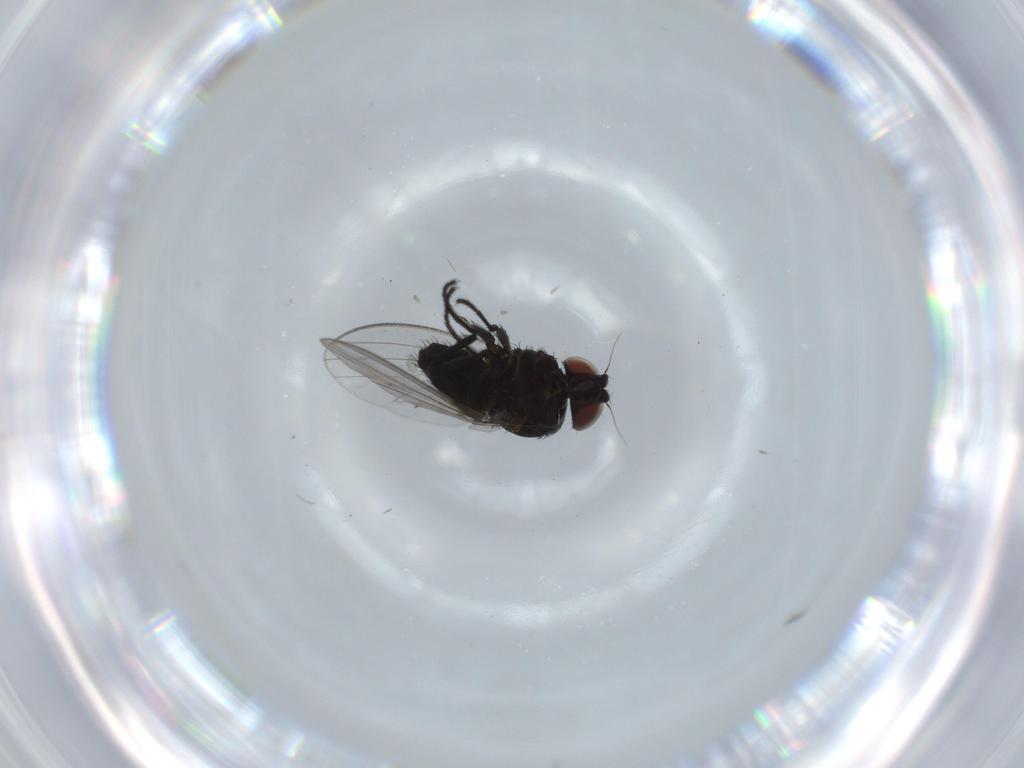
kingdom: Animalia
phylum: Arthropoda
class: Insecta
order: Diptera
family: Milichiidae
